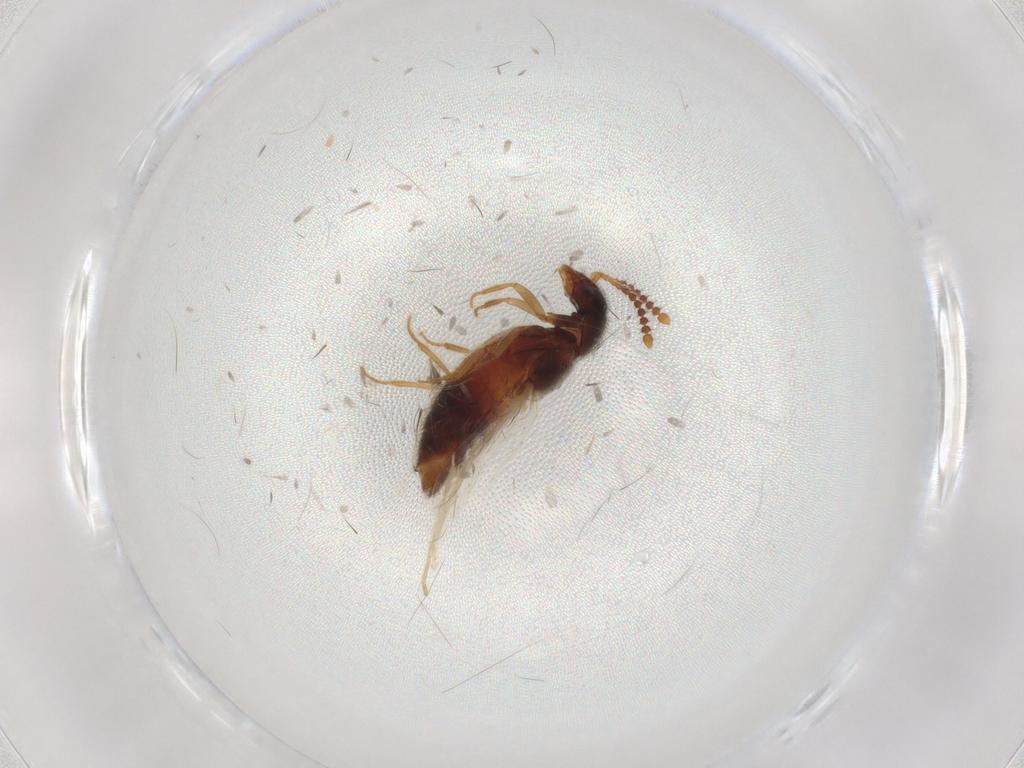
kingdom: Animalia
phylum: Arthropoda
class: Insecta
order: Coleoptera
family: Staphylinidae
